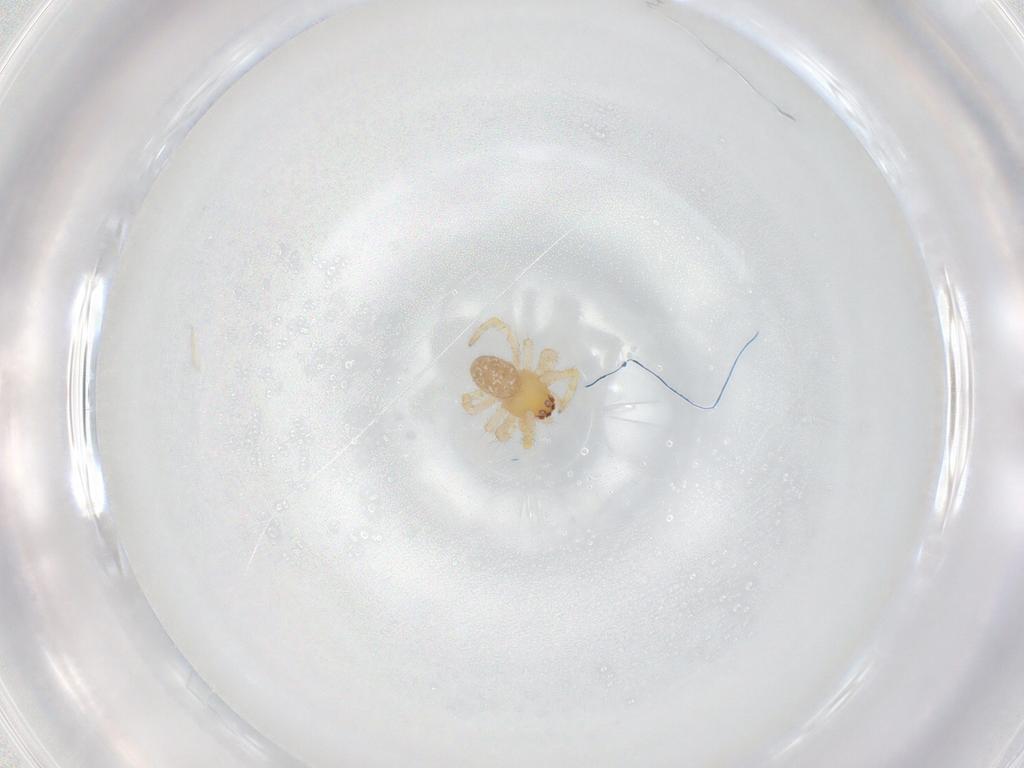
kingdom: Animalia
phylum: Arthropoda
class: Arachnida
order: Araneae
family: Theridiidae
